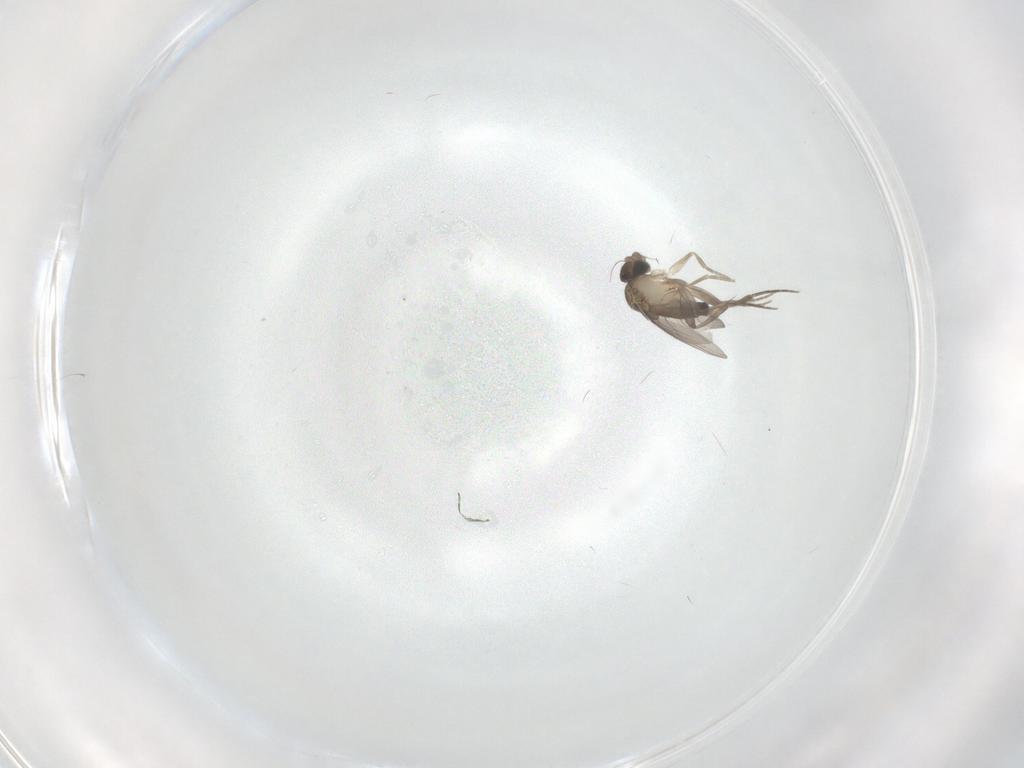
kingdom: Animalia
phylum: Arthropoda
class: Insecta
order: Diptera
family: Phoridae
